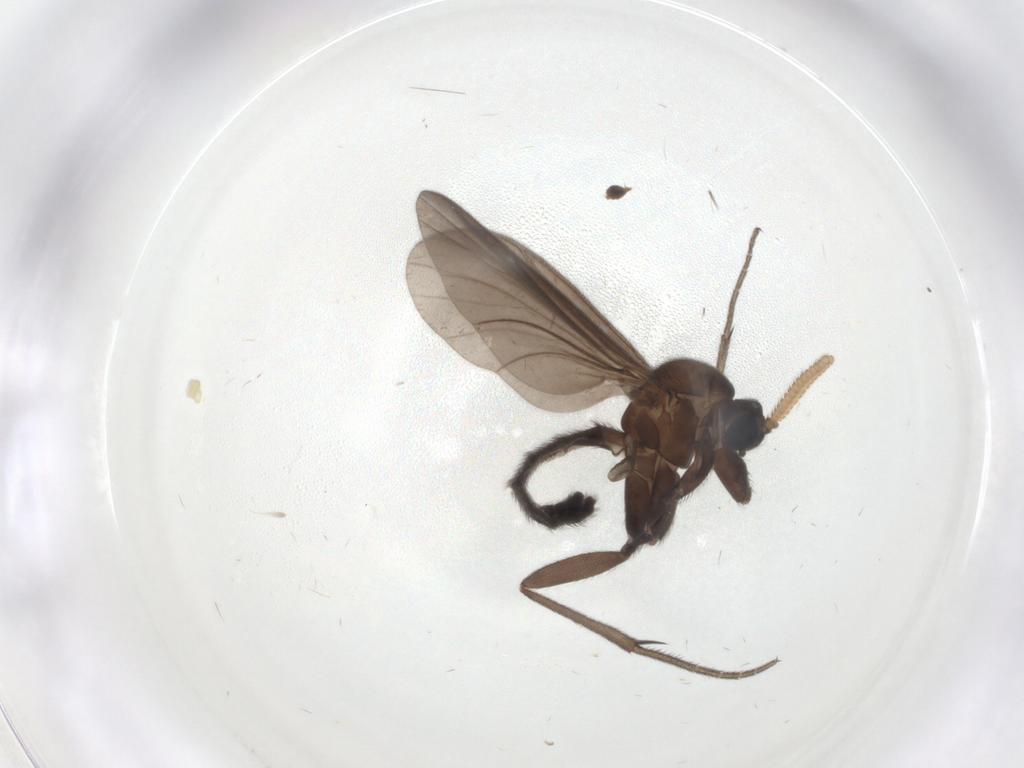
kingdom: Animalia
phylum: Arthropoda
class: Insecta
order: Diptera
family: Mycetophilidae
